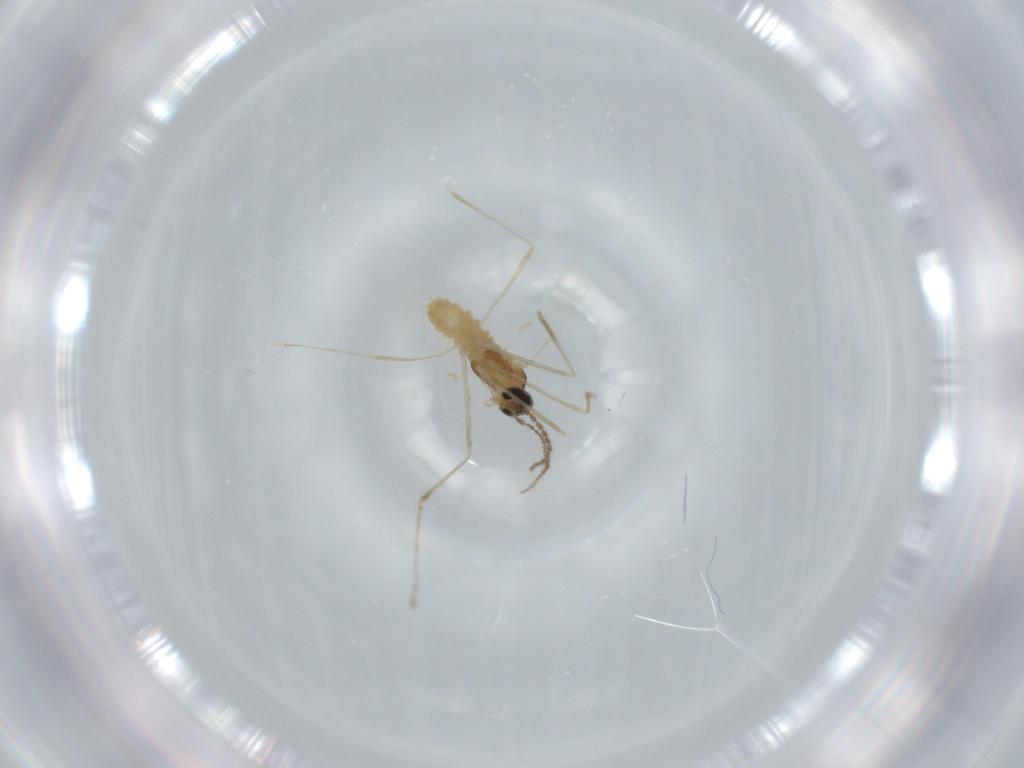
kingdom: Animalia
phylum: Arthropoda
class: Insecta
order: Diptera
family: Cecidomyiidae
